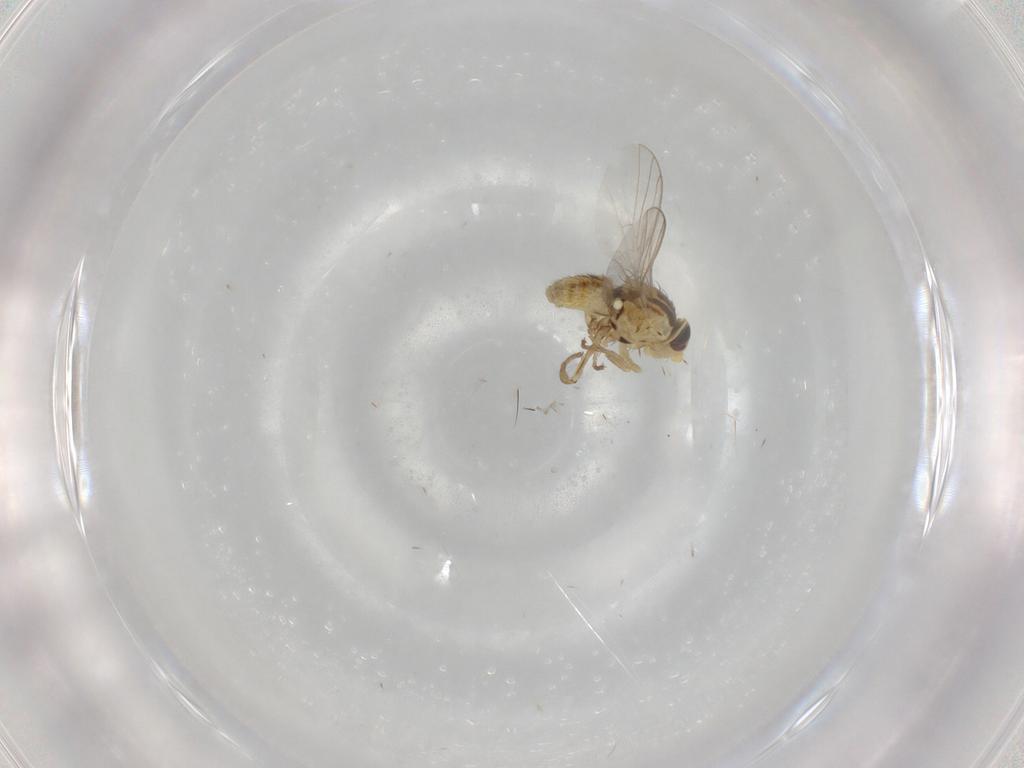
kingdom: Animalia
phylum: Arthropoda
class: Insecta
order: Diptera
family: Agromyzidae
